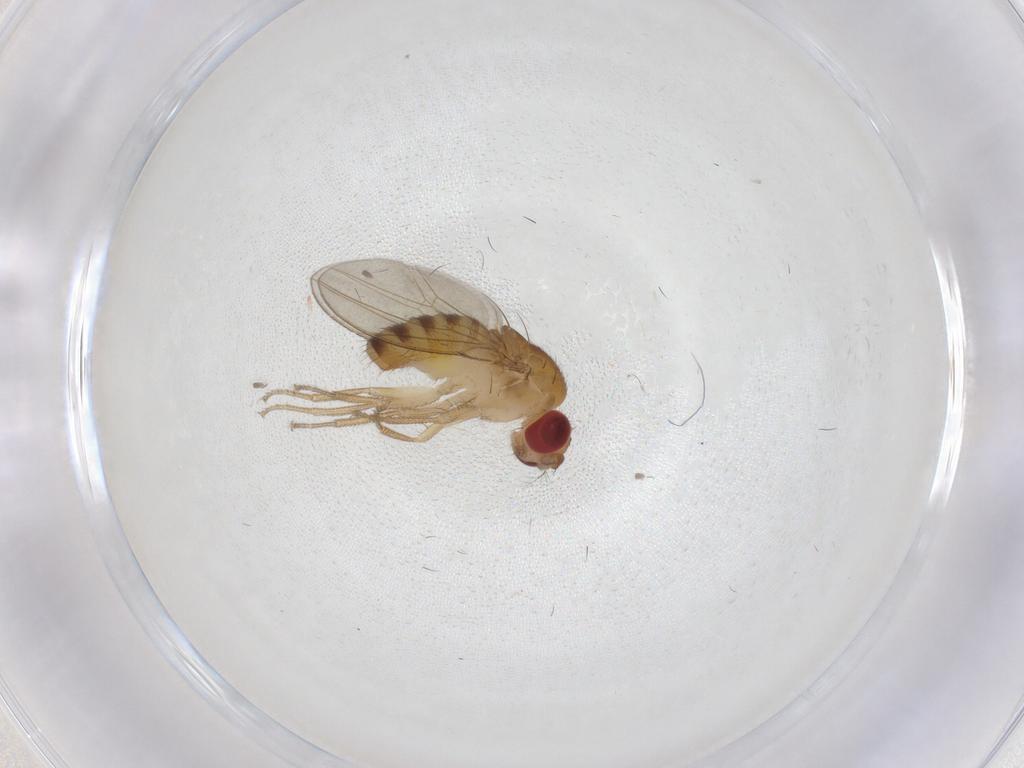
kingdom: Animalia
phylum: Arthropoda
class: Insecta
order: Diptera
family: Drosophilidae
